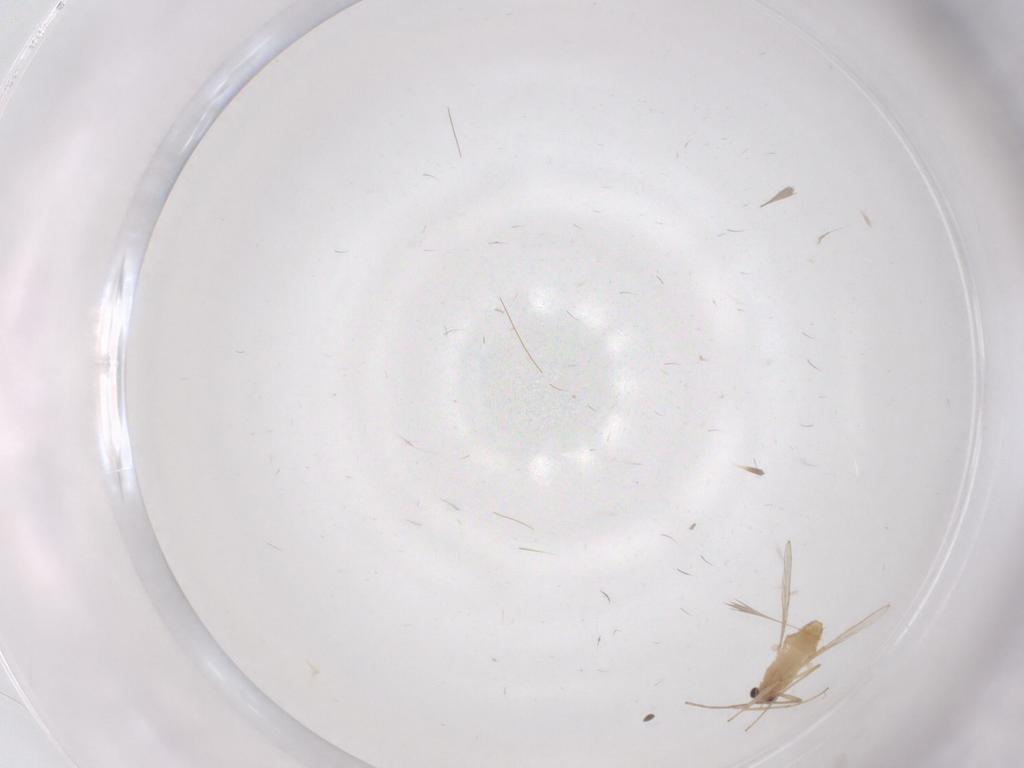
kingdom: Animalia
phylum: Arthropoda
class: Insecta
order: Diptera
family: Chironomidae
